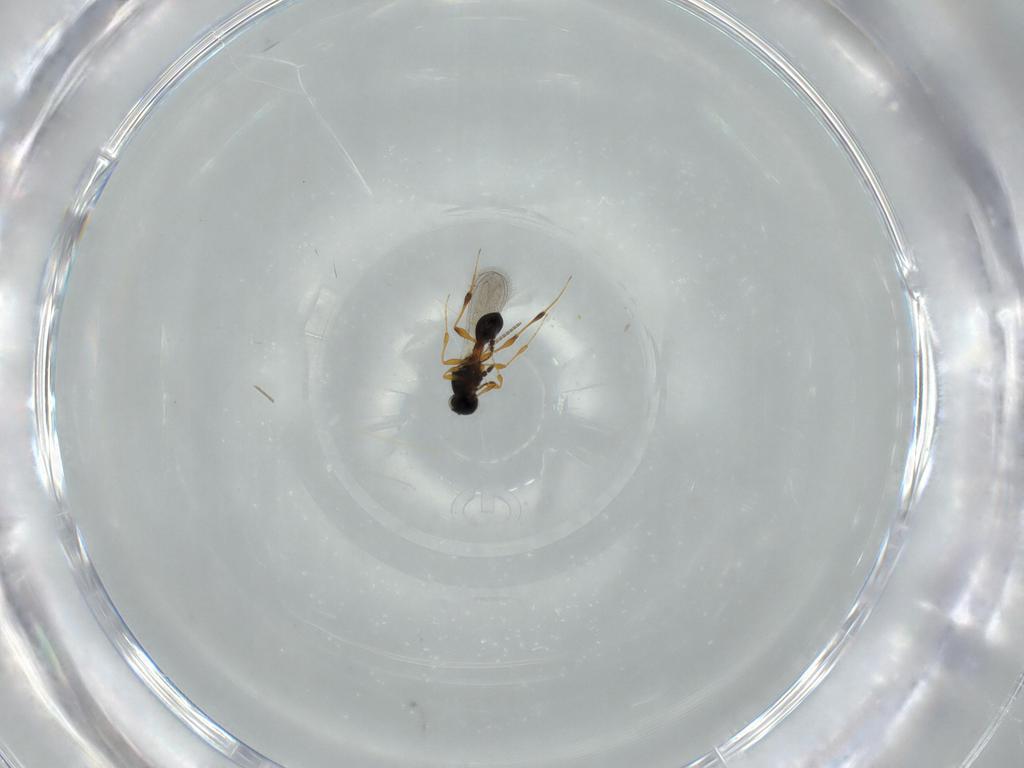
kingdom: Animalia
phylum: Arthropoda
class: Insecta
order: Hymenoptera
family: Platygastridae
